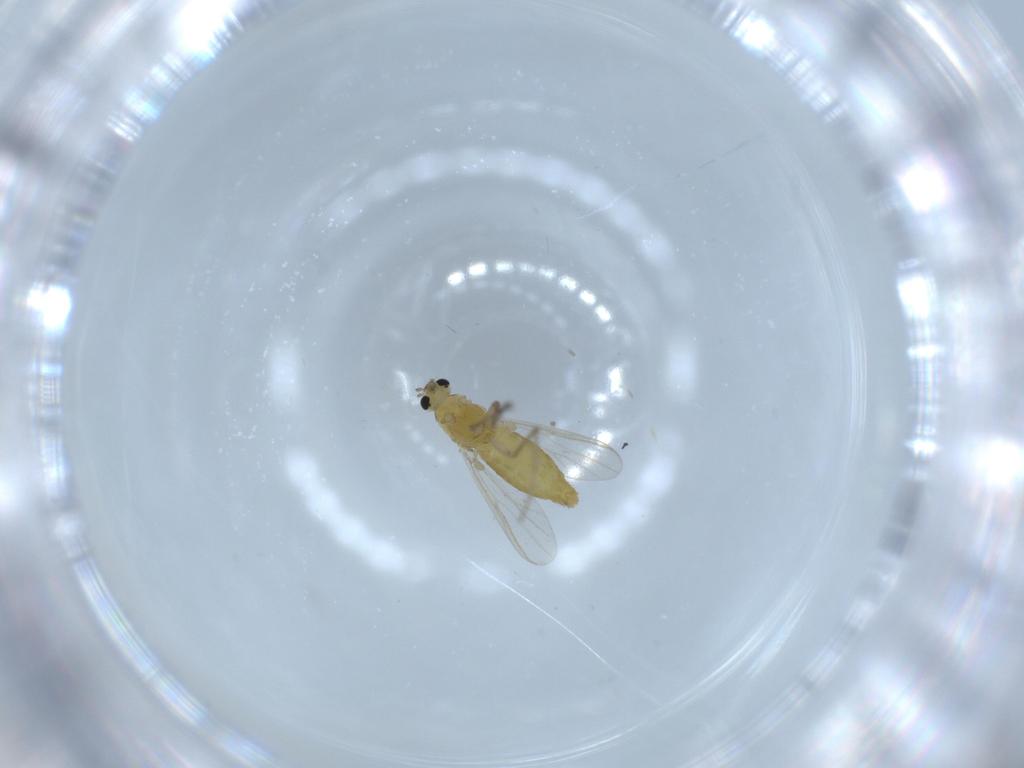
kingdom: Animalia
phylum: Arthropoda
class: Insecta
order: Diptera
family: Chironomidae
